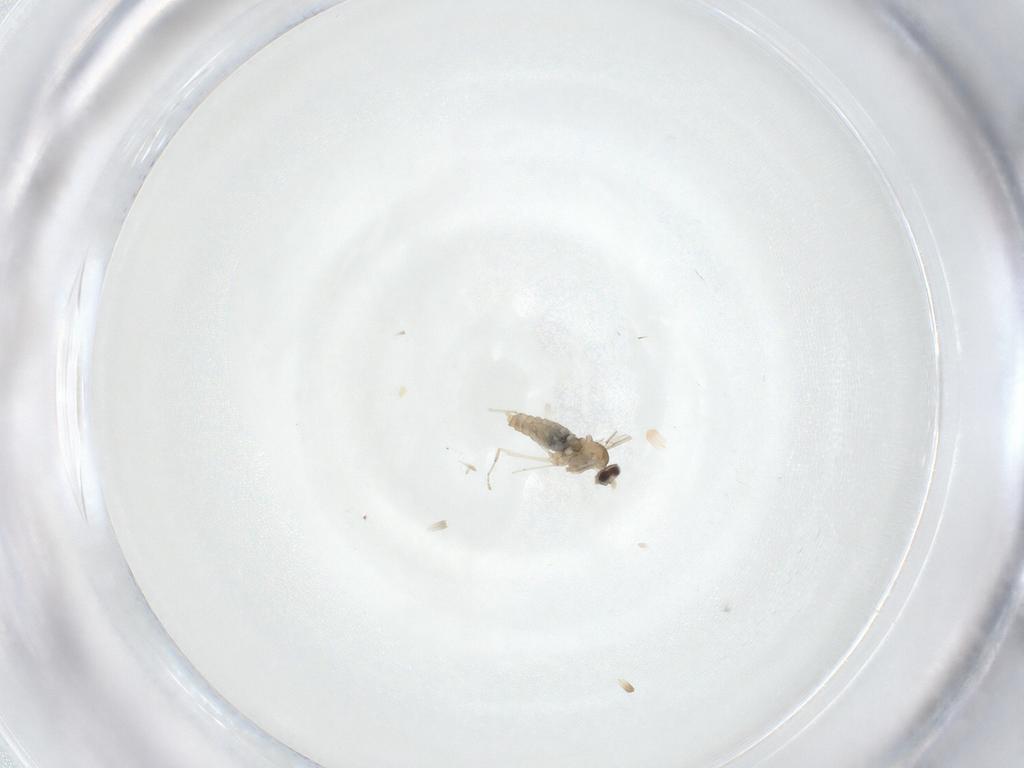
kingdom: Animalia
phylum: Arthropoda
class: Insecta
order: Diptera
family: Cecidomyiidae
